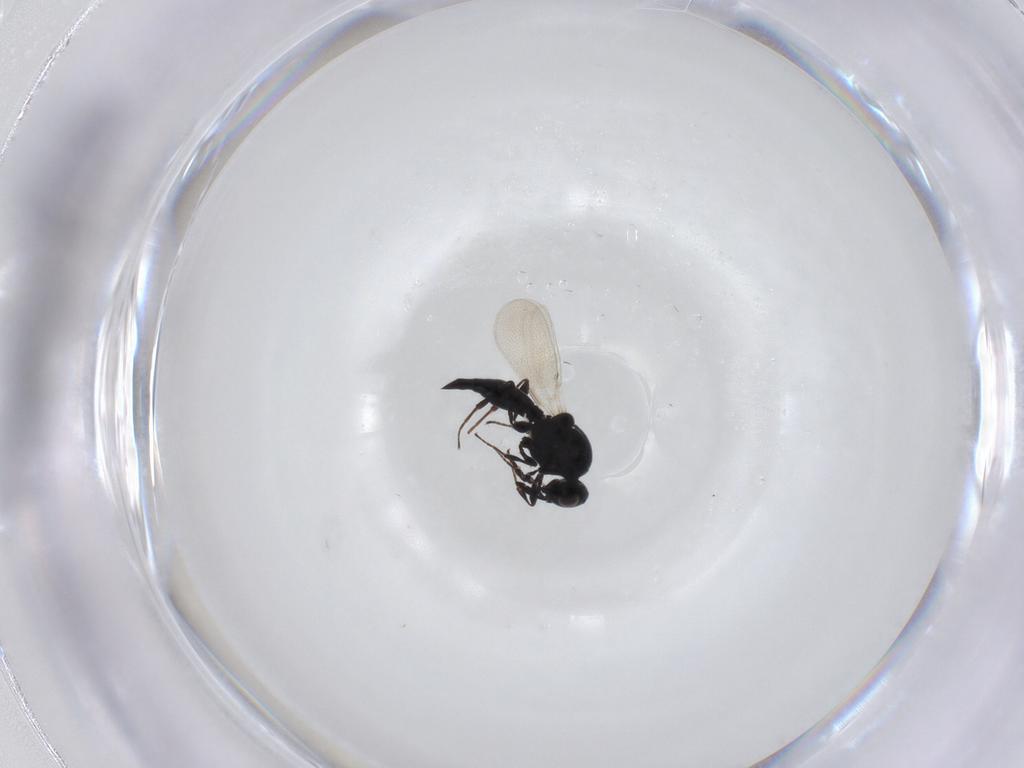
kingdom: Animalia
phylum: Arthropoda
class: Insecta
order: Diptera
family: Mythicomyiidae
